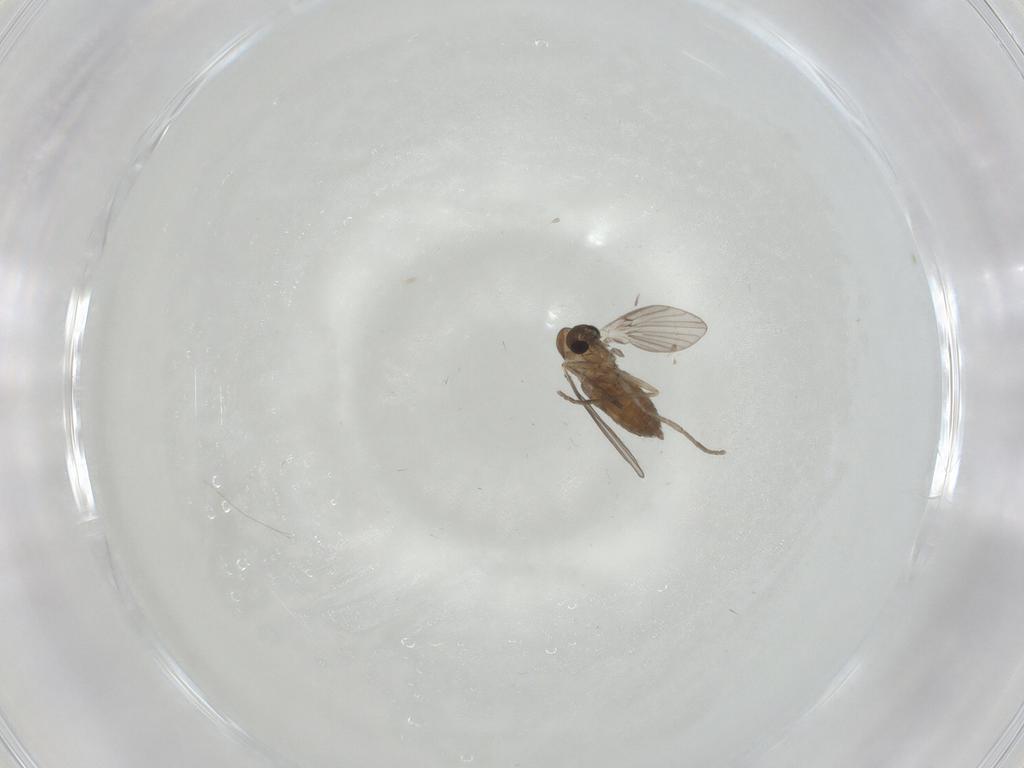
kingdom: Animalia
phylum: Arthropoda
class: Insecta
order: Diptera
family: Psychodidae
